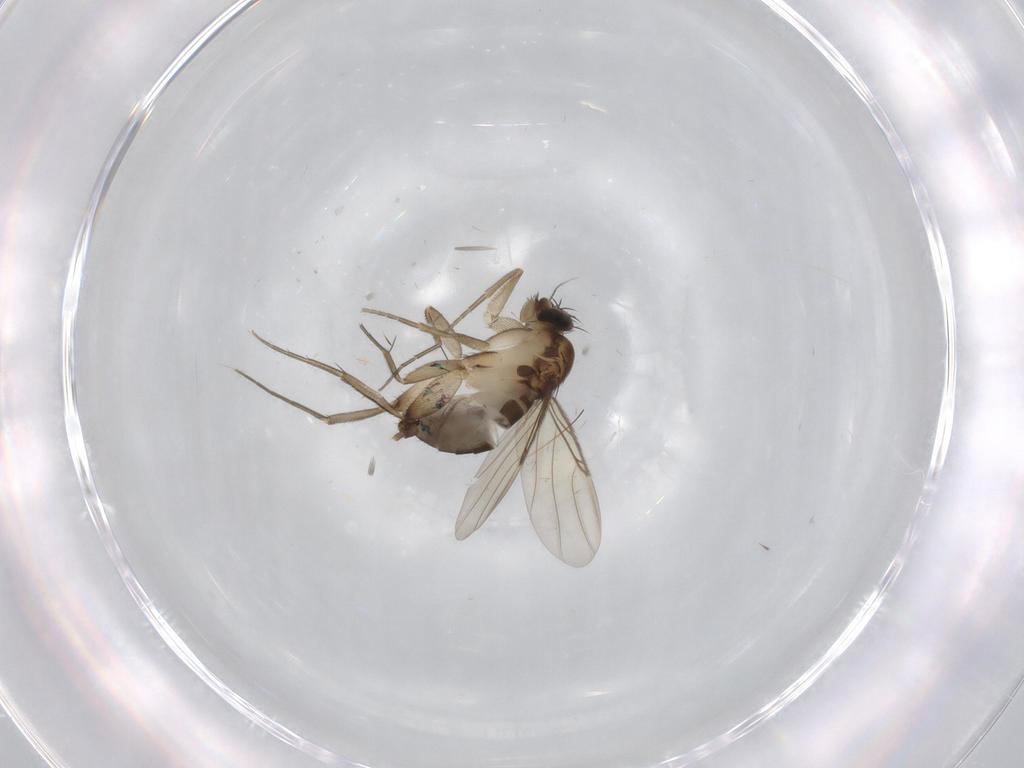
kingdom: Animalia
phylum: Arthropoda
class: Insecta
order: Diptera
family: Phoridae
